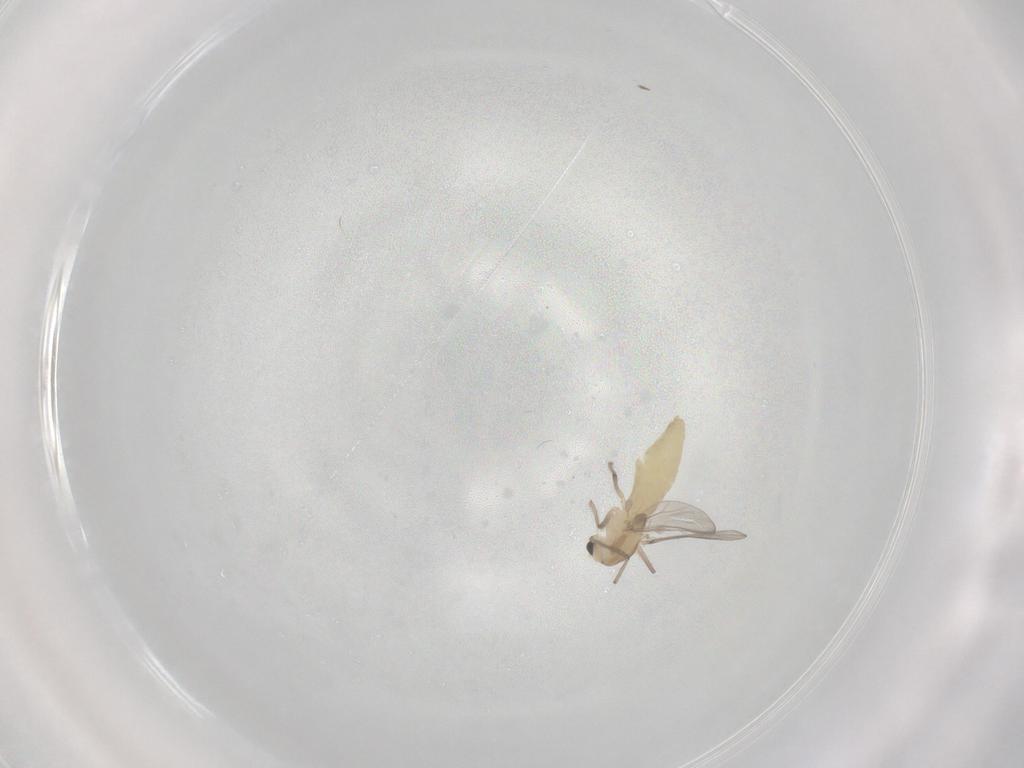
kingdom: Animalia
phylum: Arthropoda
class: Insecta
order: Diptera
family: Chironomidae
